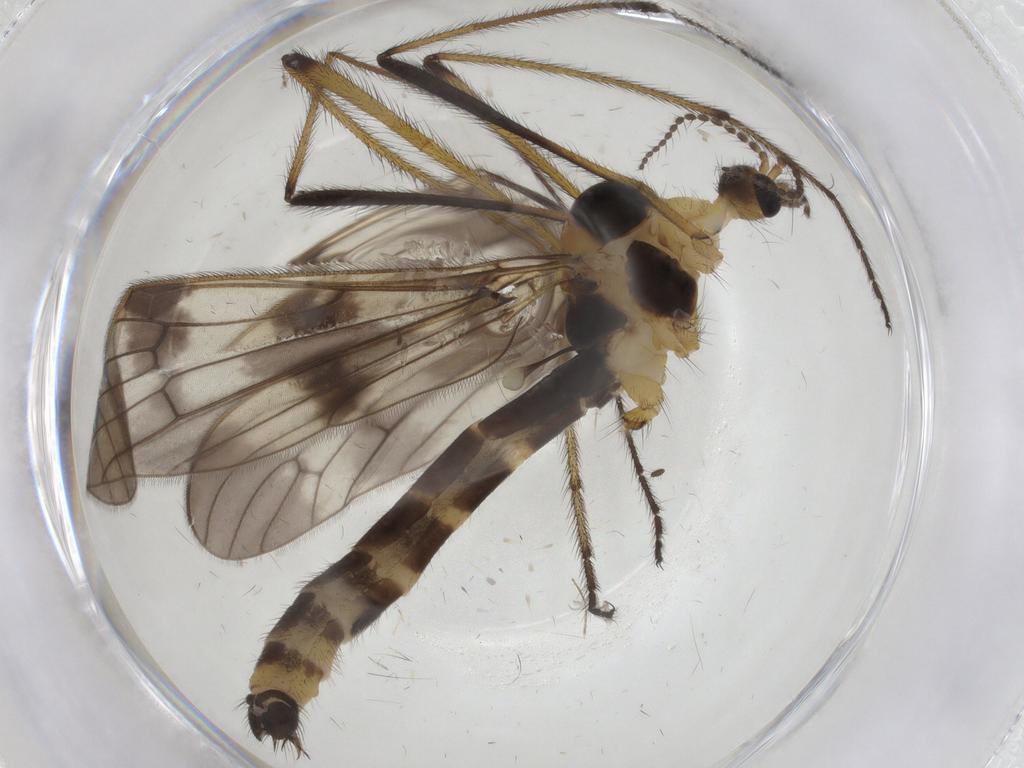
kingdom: Animalia
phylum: Arthropoda
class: Insecta
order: Diptera
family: Limoniidae
